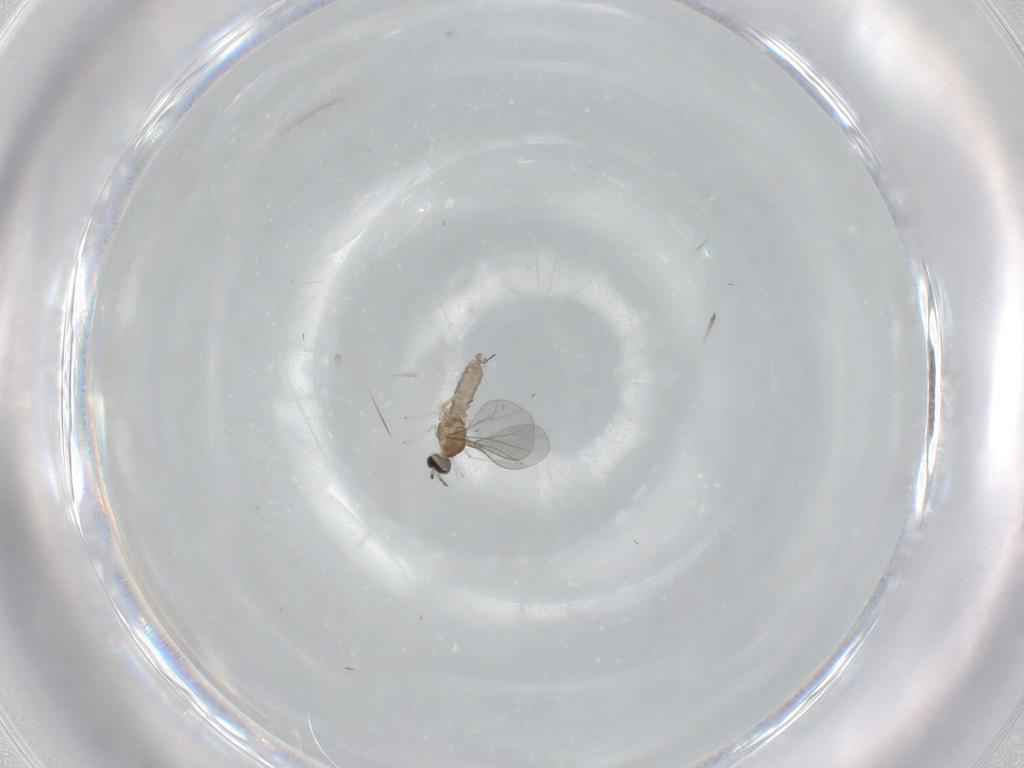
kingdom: Animalia
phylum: Arthropoda
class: Insecta
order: Diptera
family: Cecidomyiidae
